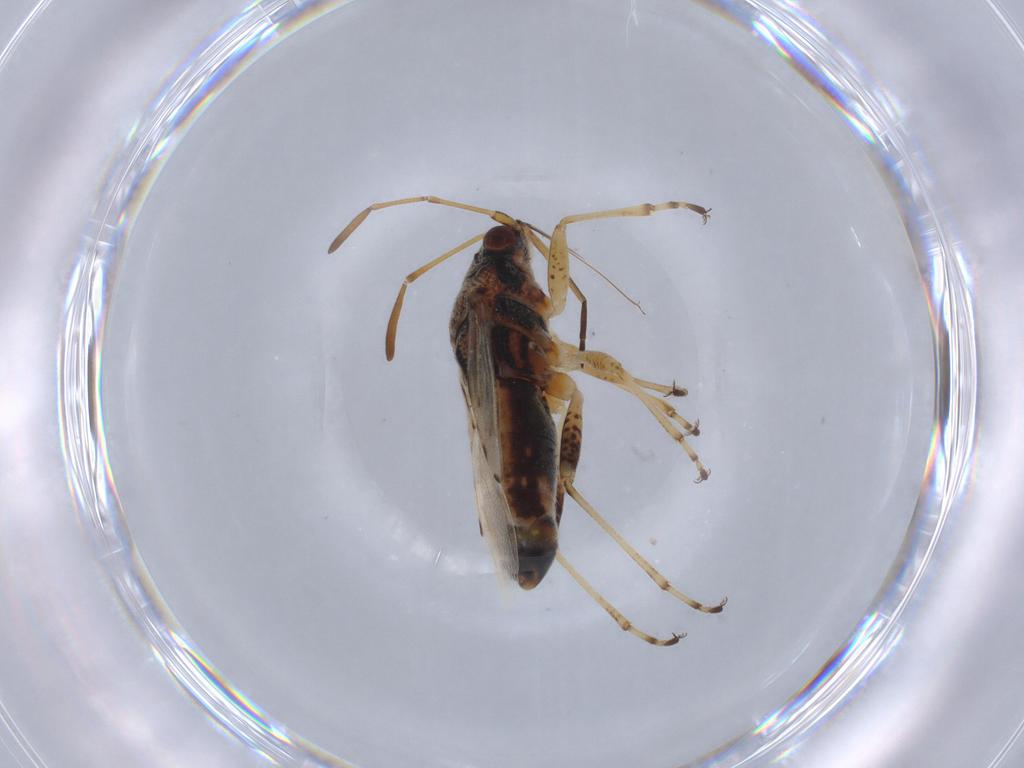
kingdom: Animalia
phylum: Arthropoda
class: Insecta
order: Hemiptera
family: Lygaeidae
